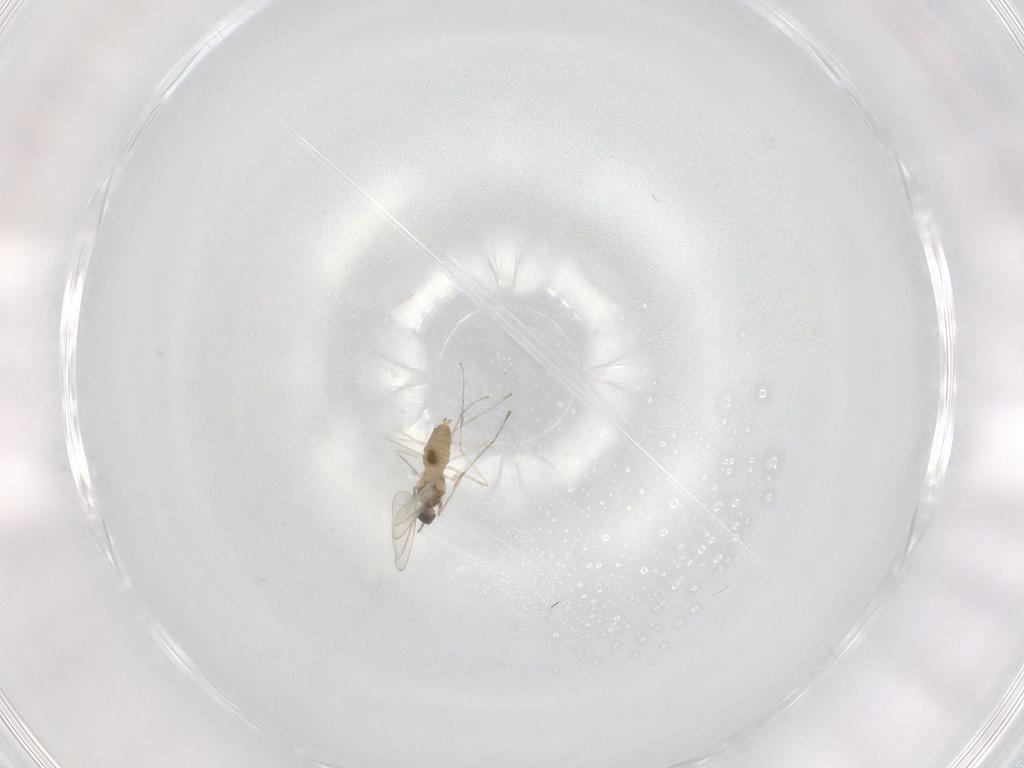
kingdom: Animalia
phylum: Arthropoda
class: Insecta
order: Diptera
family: Cecidomyiidae
